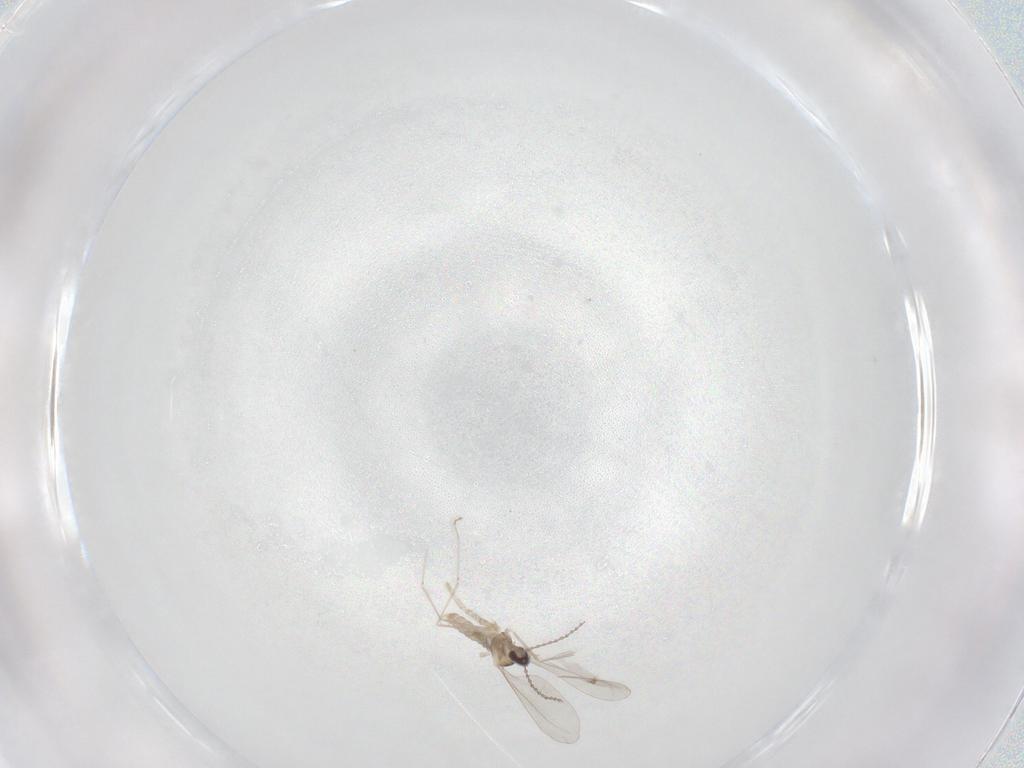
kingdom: Animalia
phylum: Arthropoda
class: Insecta
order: Diptera
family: Cecidomyiidae
